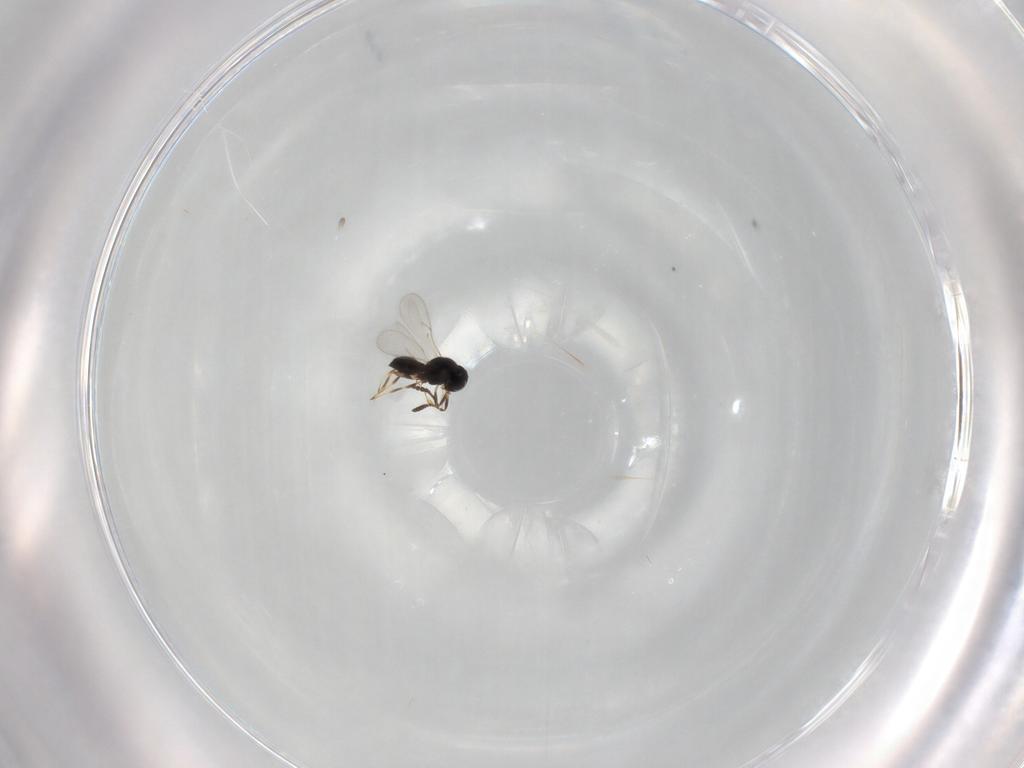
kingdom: Animalia
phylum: Arthropoda
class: Insecta
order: Hymenoptera
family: Scelionidae
